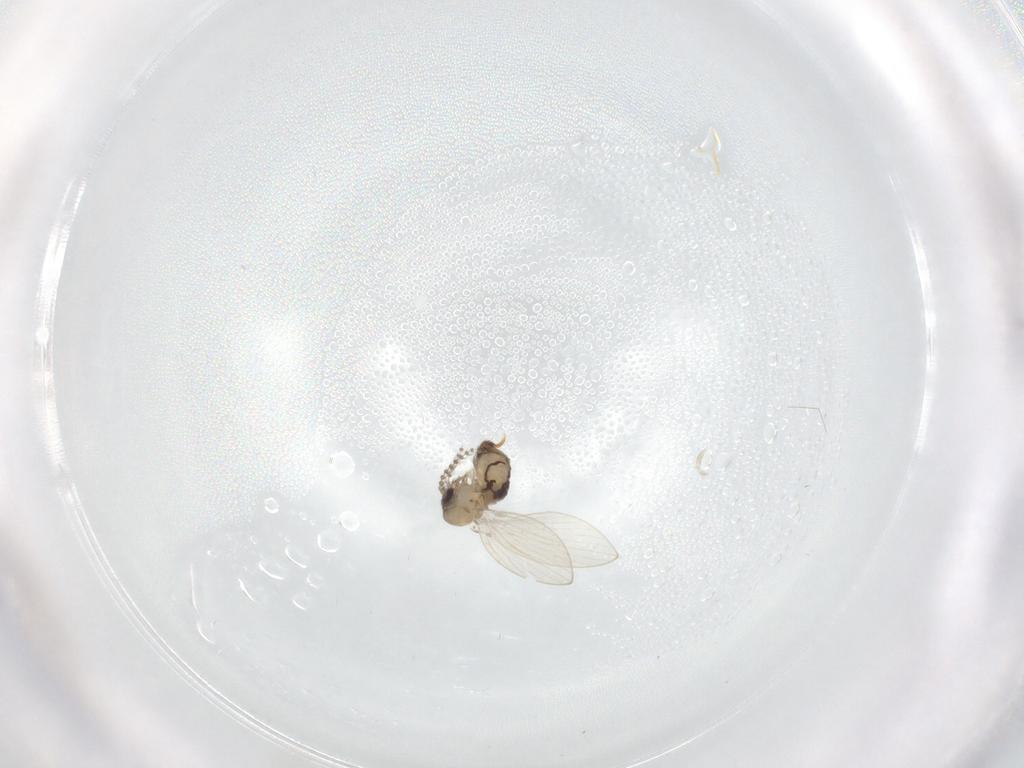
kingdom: Animalia
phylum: Arthropoda
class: Insecta
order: Diptera
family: Psychodidae
